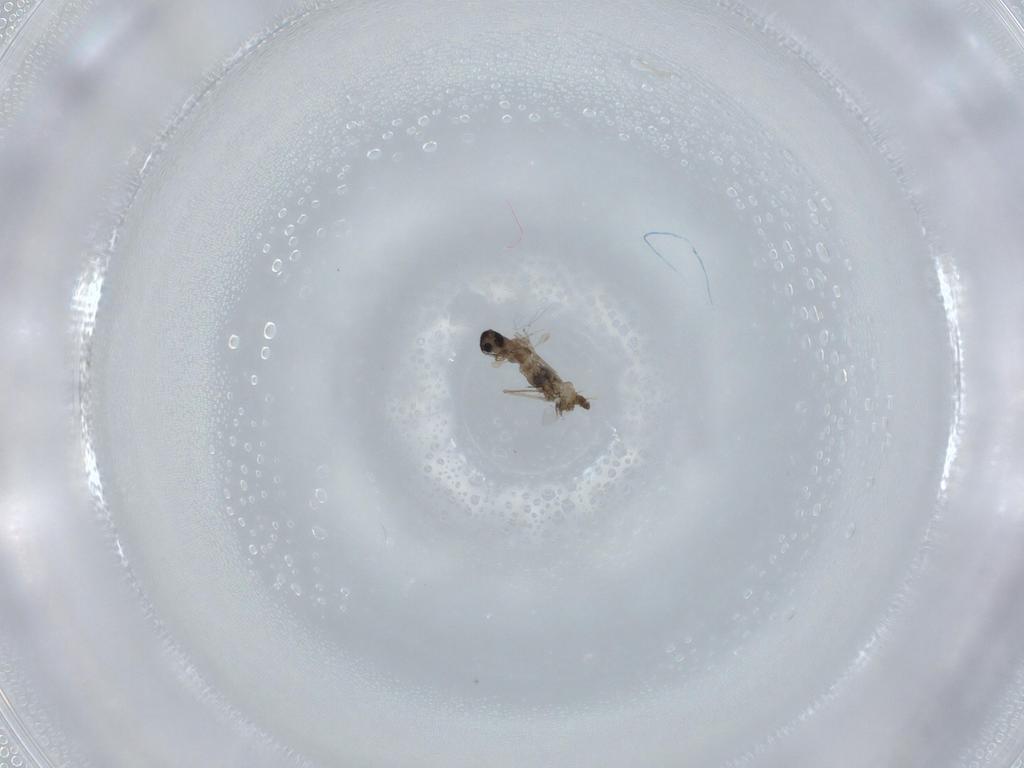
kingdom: Animalia
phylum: Arthropoda
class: Insecta
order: Diptera
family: Cecidomyiidae
